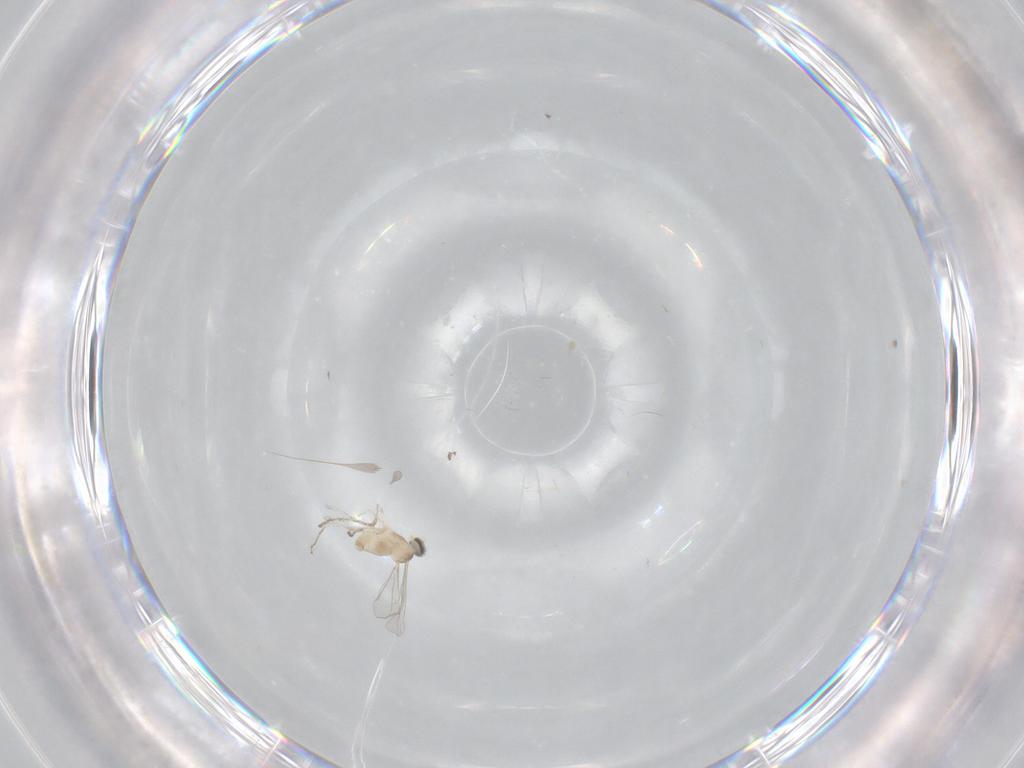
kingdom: Animalia
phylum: Arthropoda
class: Insecta
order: Diptera
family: Cecidomyiidae
